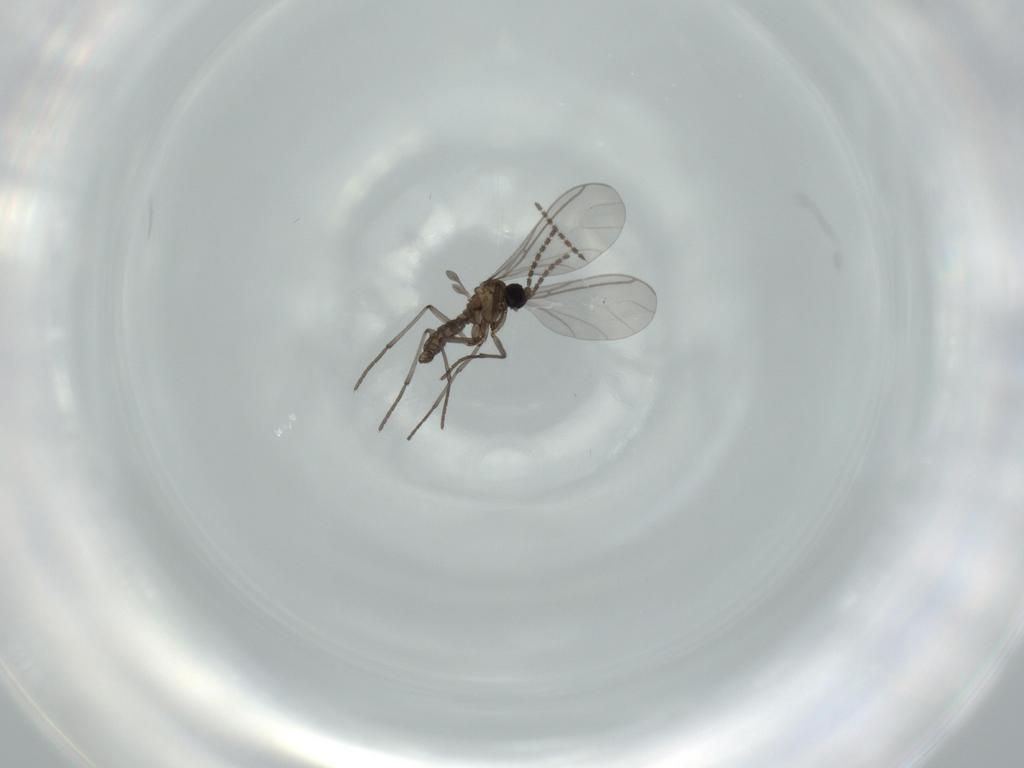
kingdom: Animalia
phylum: Arthropoda
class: Insecta
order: Diptera
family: Sciaridae
